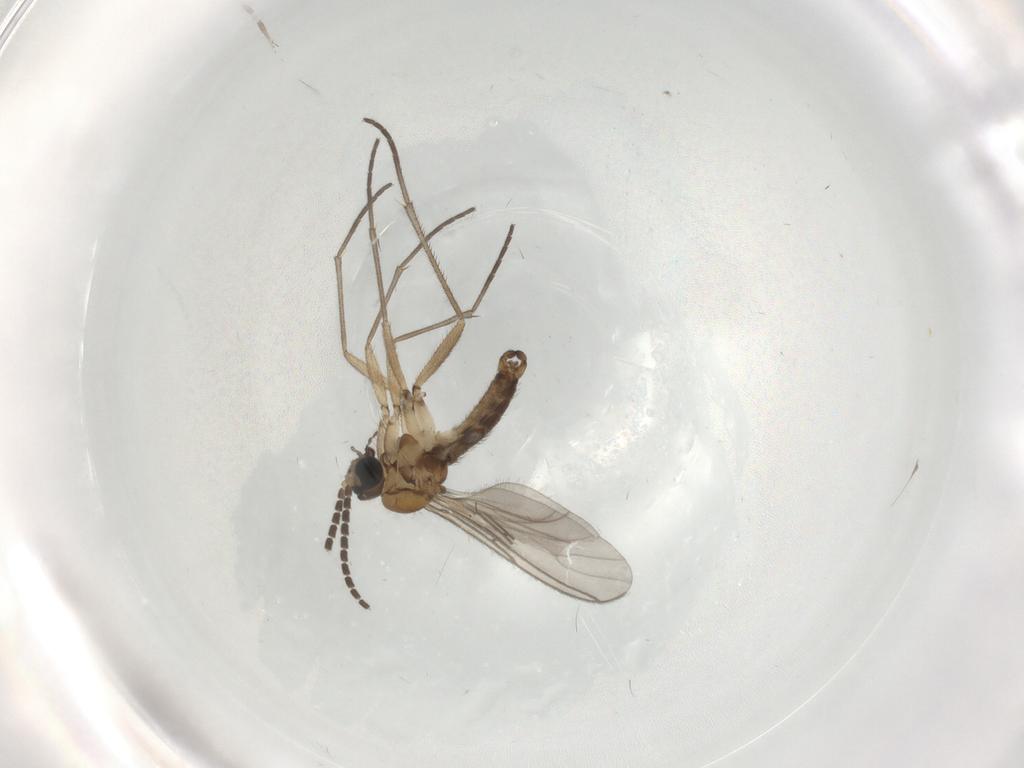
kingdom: Animalia
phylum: Arthropoda
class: Insecta
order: Diptera
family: Sciaridae
